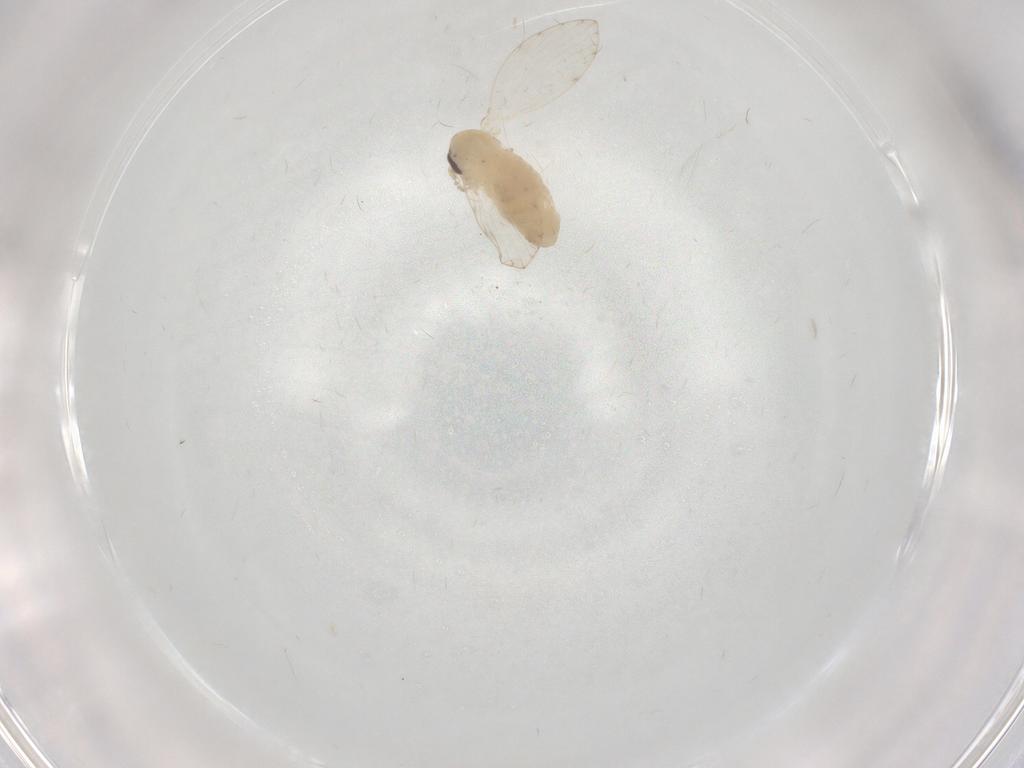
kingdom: Animalia
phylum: Arthropoda
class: Insecta
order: Diptera
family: Psychodidae
